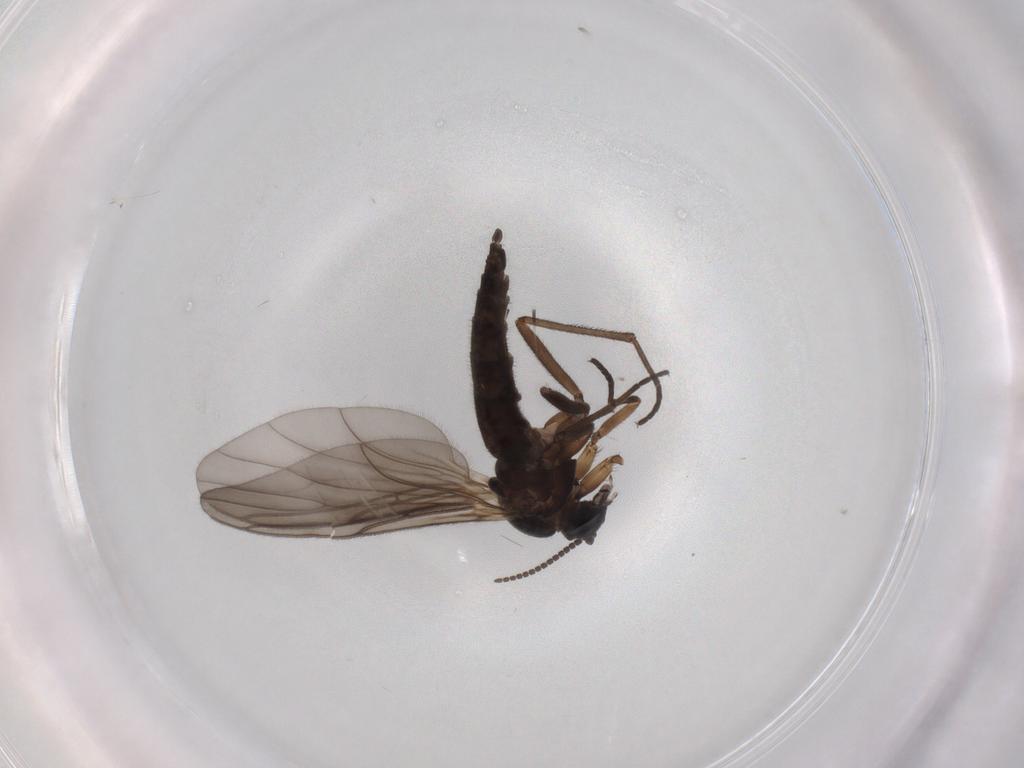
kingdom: Animalia
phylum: Arthropoda
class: Insecta
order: Diptera
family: Sciaridae
